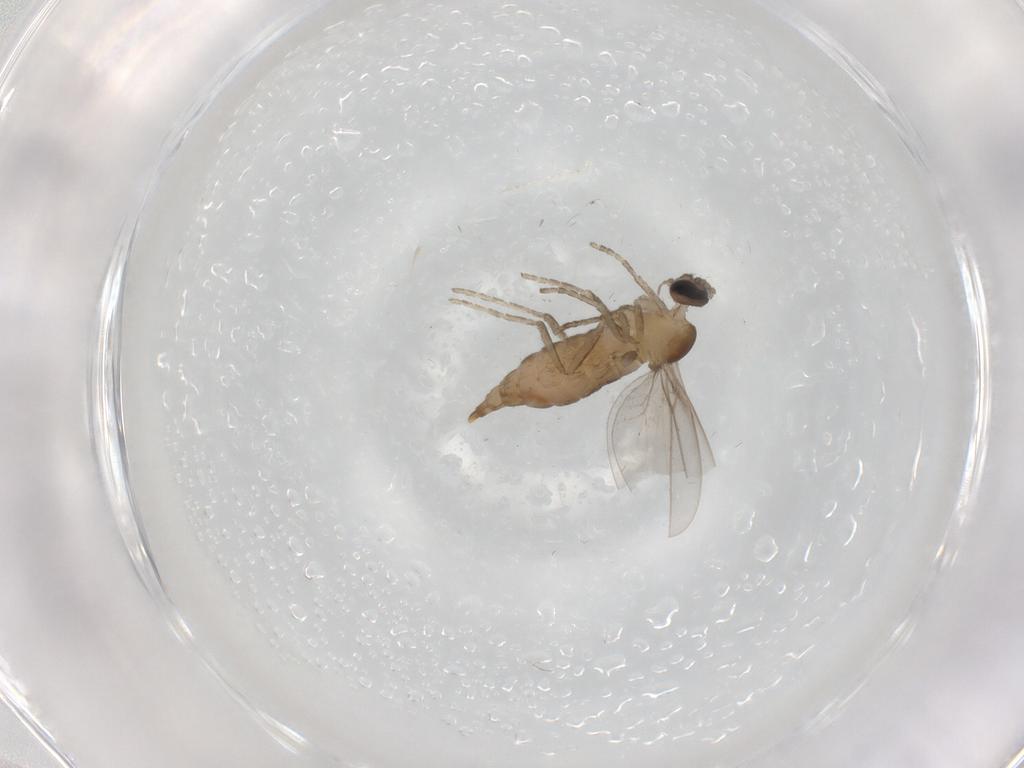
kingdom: Animalia
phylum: Arthropoda
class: Insecta
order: Diptera
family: Cecidomyiidae
